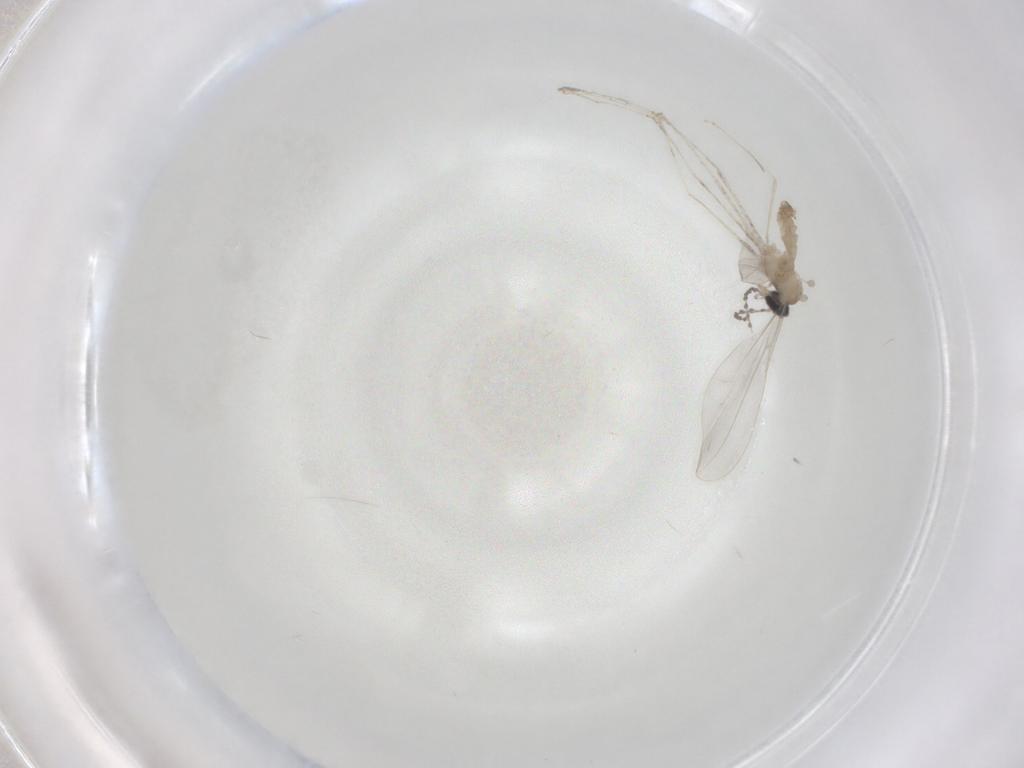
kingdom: Animalia
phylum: Arthropoda
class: Insecta
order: Diptera
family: Cecidomyiidae
